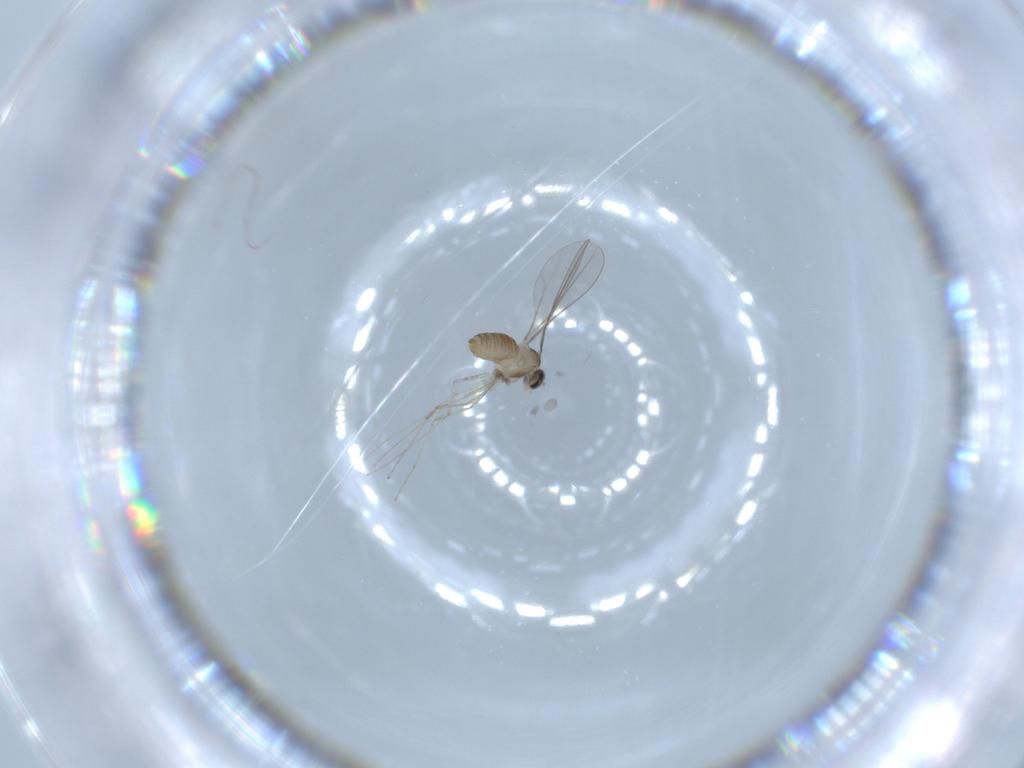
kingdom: Animalia
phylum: Arthropoda
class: Insecta
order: Diptera
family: Cecidomyiidae
